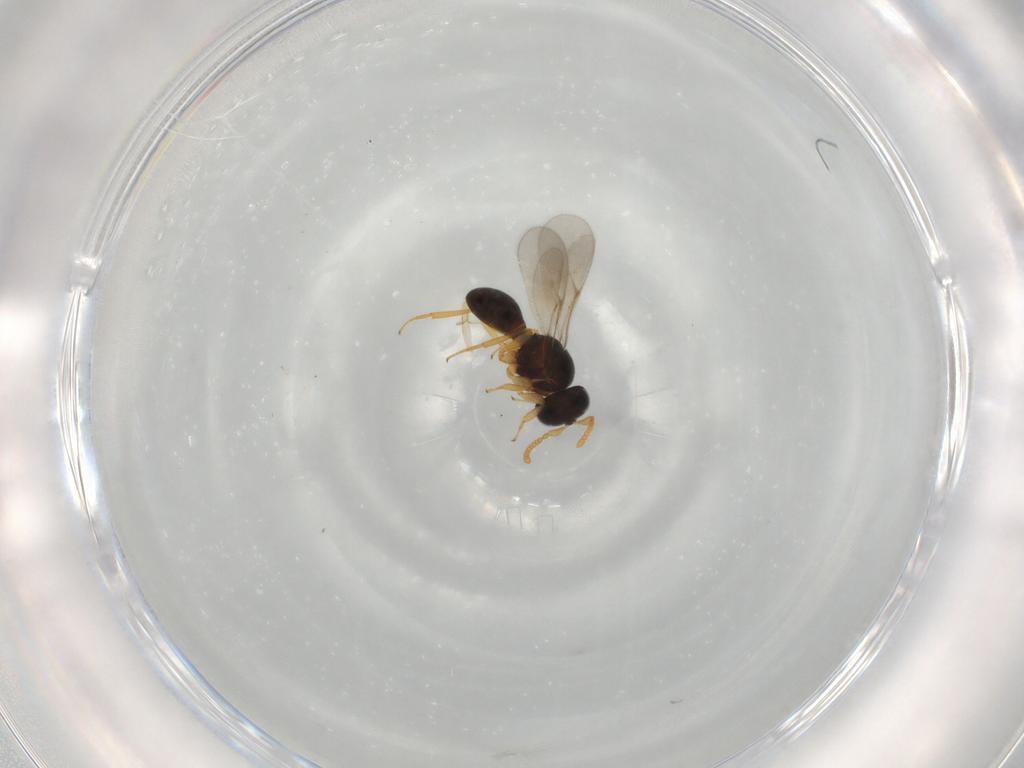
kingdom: Animalia
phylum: Arthropoda
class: Insecta
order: Hymenoptera
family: Scelionidae
